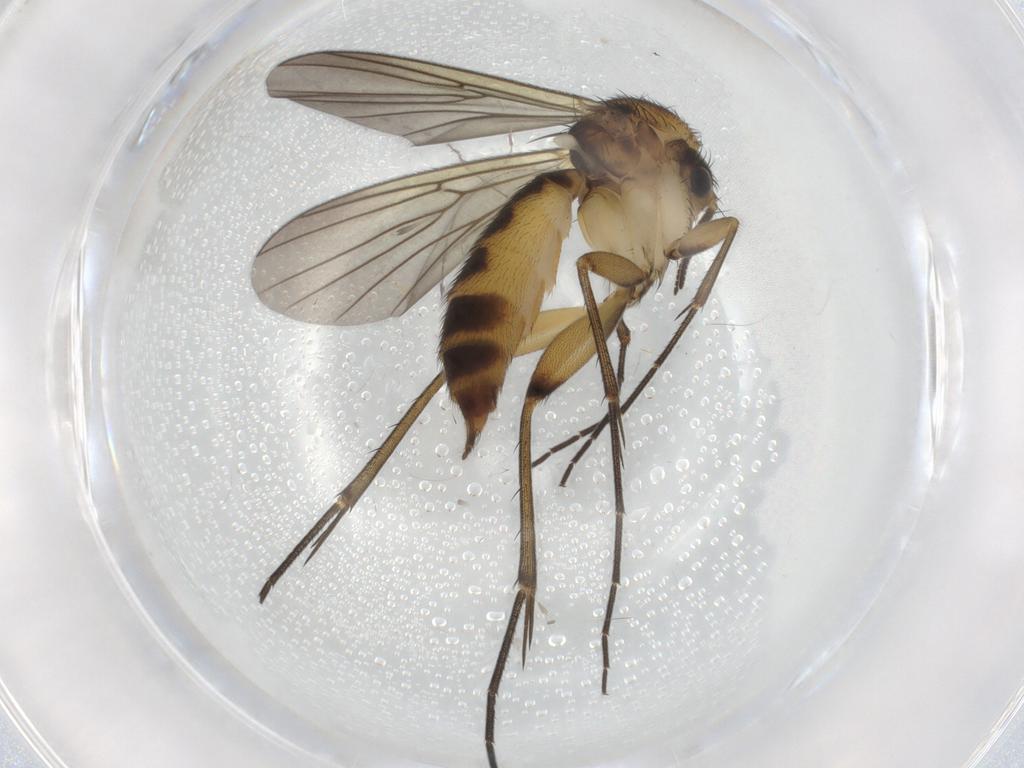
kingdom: Animalia
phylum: Arthropoda
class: Insecta
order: Diptera
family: Mycetophilidae
